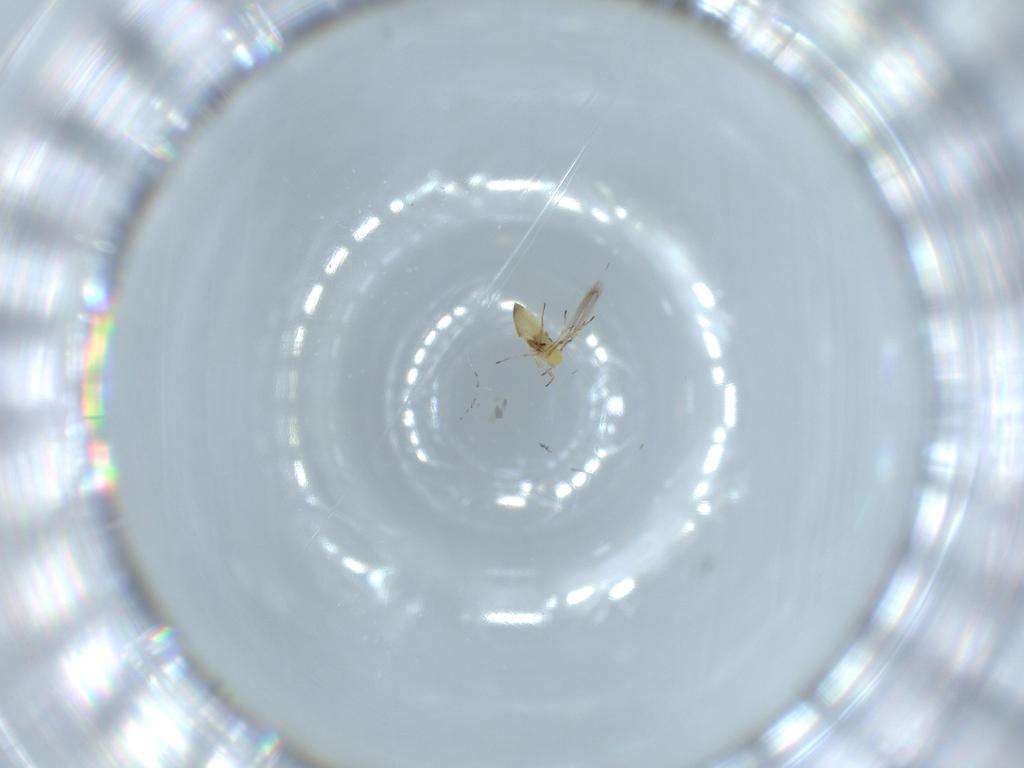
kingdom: Animalia
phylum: Arthropoda
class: Insecta
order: Hymenoptera
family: Trichogrammatidae
